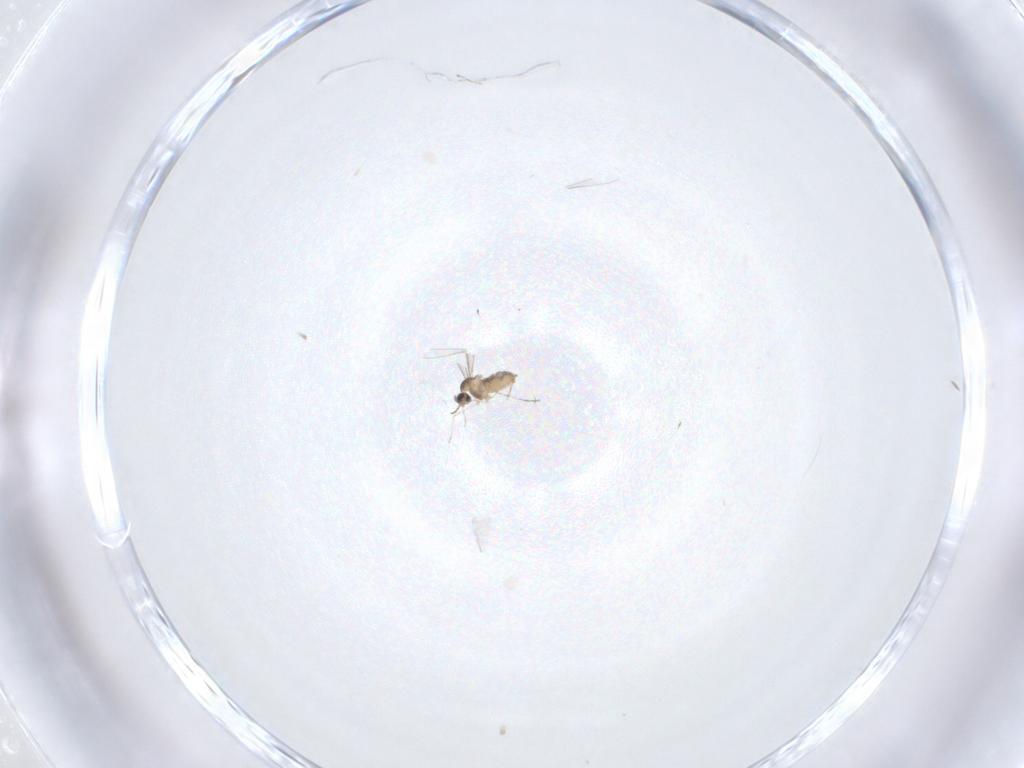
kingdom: Animalia
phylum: Arthropoda
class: Insecta
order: Diptera
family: Cecidomyiidae
